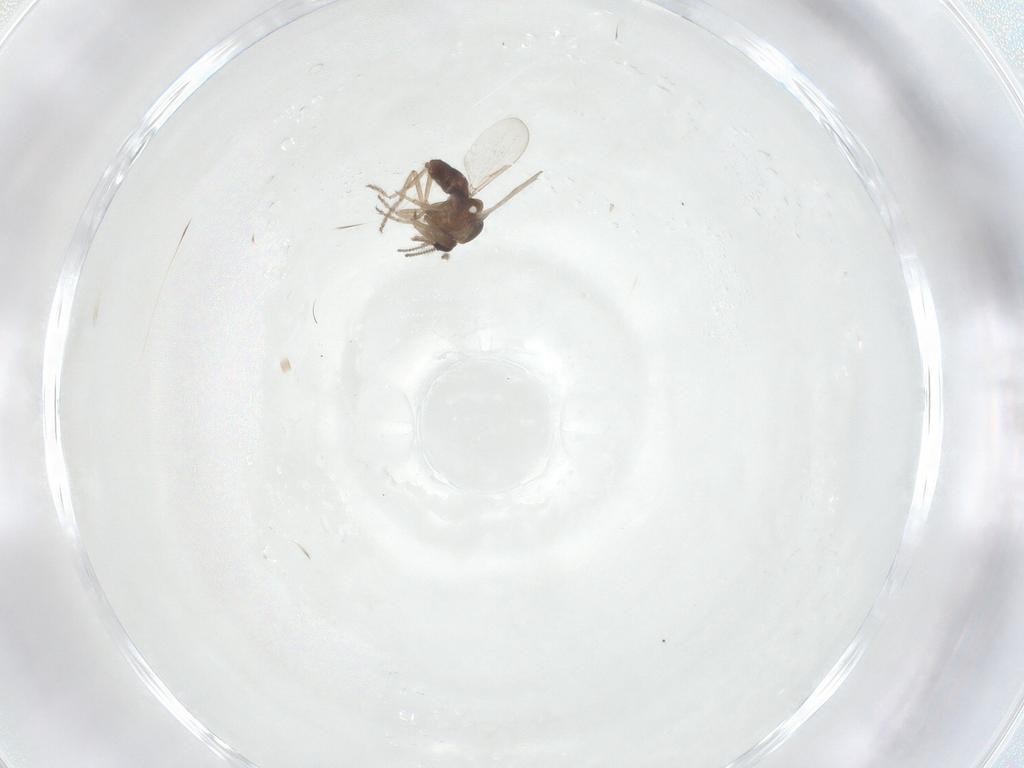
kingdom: Animalia
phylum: Arthropoda
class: Insecta
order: Diptera
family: Ceratopogonidae
